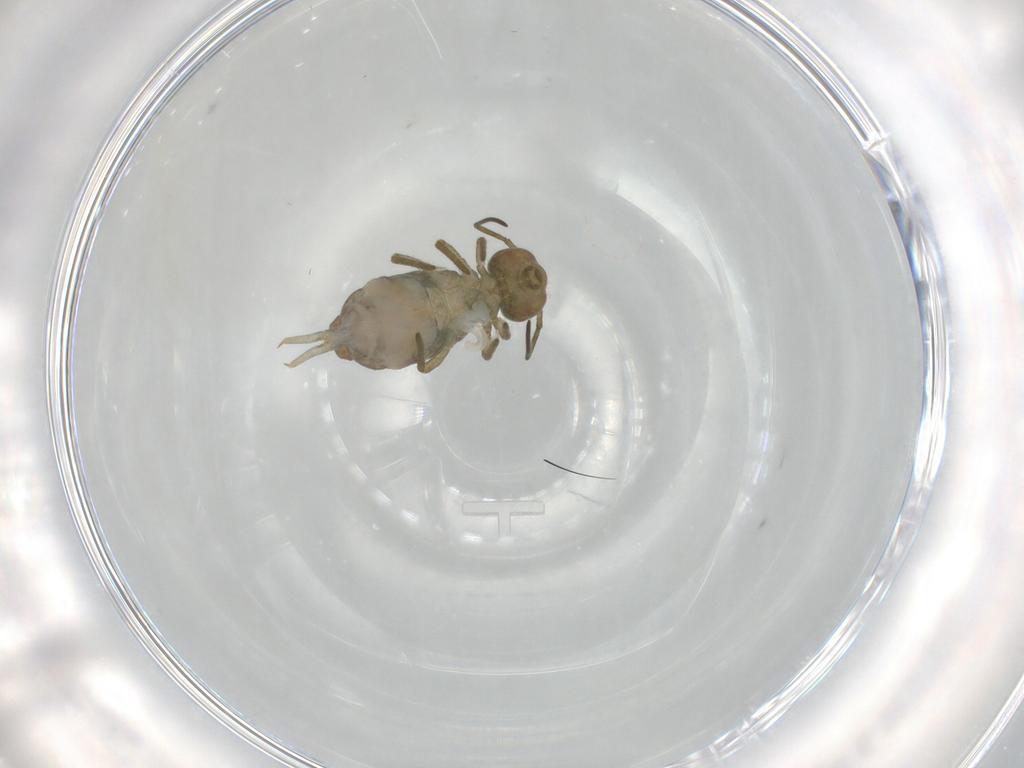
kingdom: Animalia
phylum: Arthropoda
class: Collembola
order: Symphypleona
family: Sminthuridae
